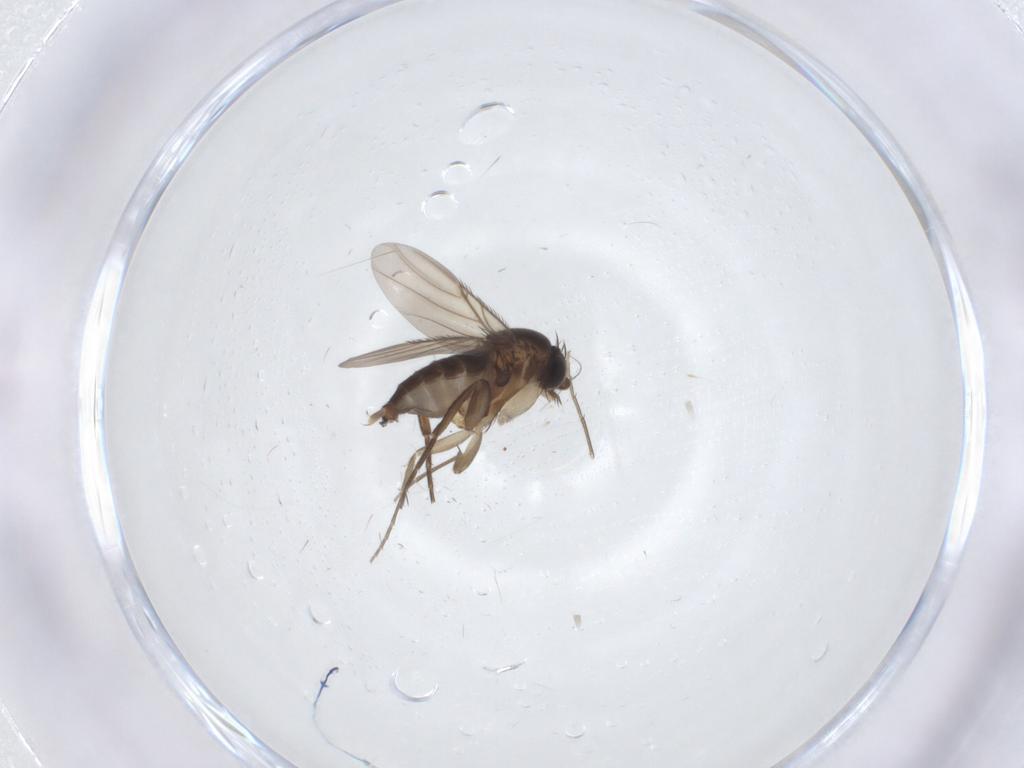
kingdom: Animalia
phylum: Arthropoda
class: Insecta
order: Diptera
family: Phoridae
